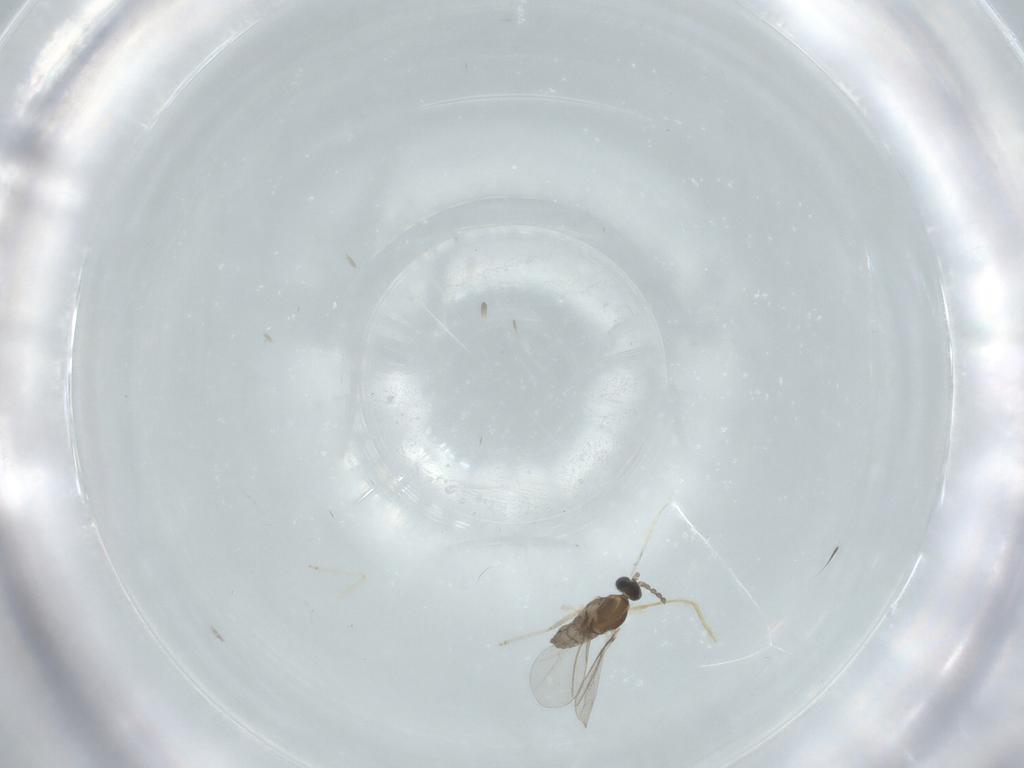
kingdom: Animalia
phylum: Arthropoda
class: Insecta
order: Diptera
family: Cecidomyiidae
